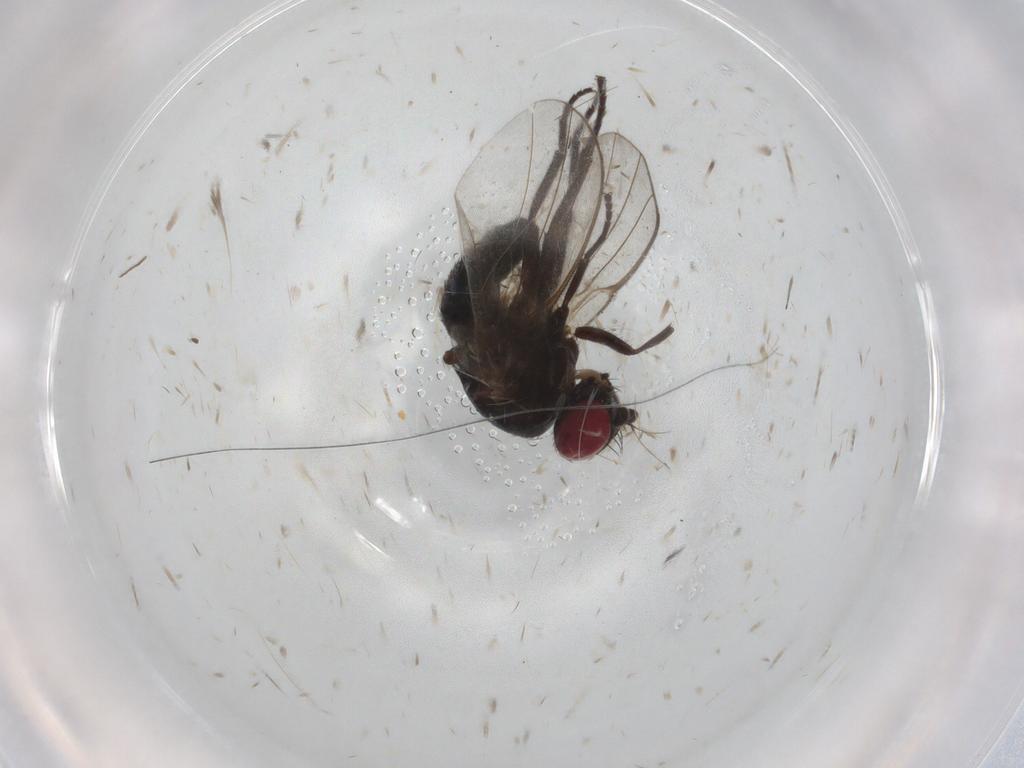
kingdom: Animalia
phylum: Arthropoda
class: Insecta
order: Diptera
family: Agromyzidae
